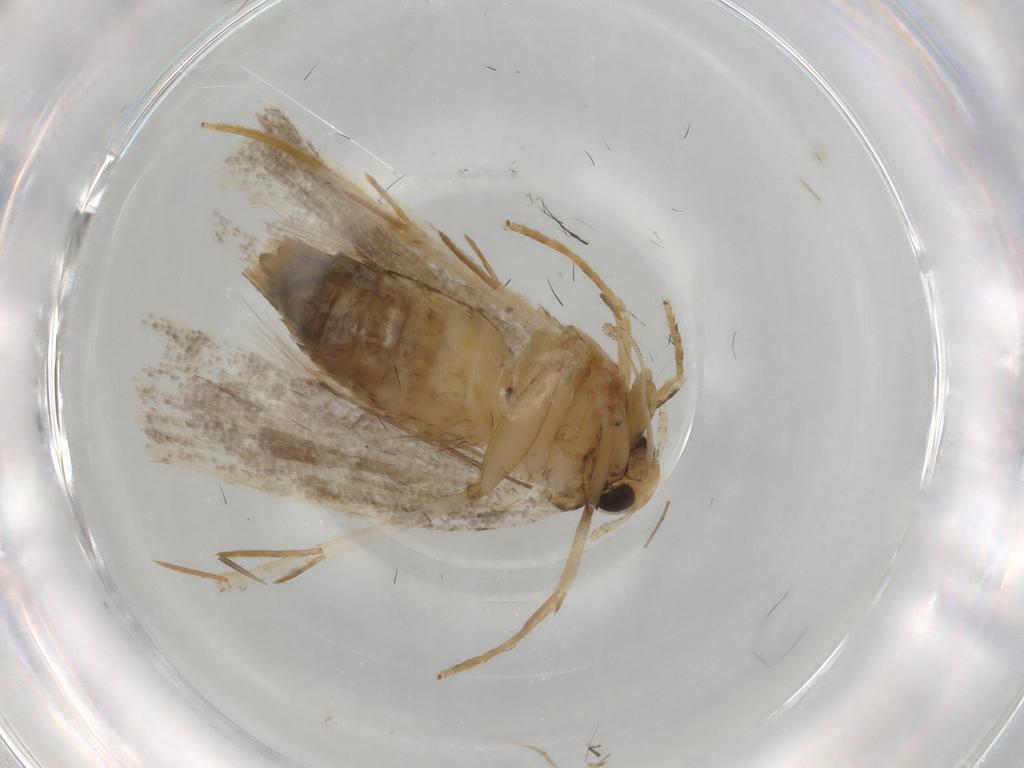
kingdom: Animalia
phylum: Arthropoda
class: Insecta
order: Lepidoptera
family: Lecithoceridae
